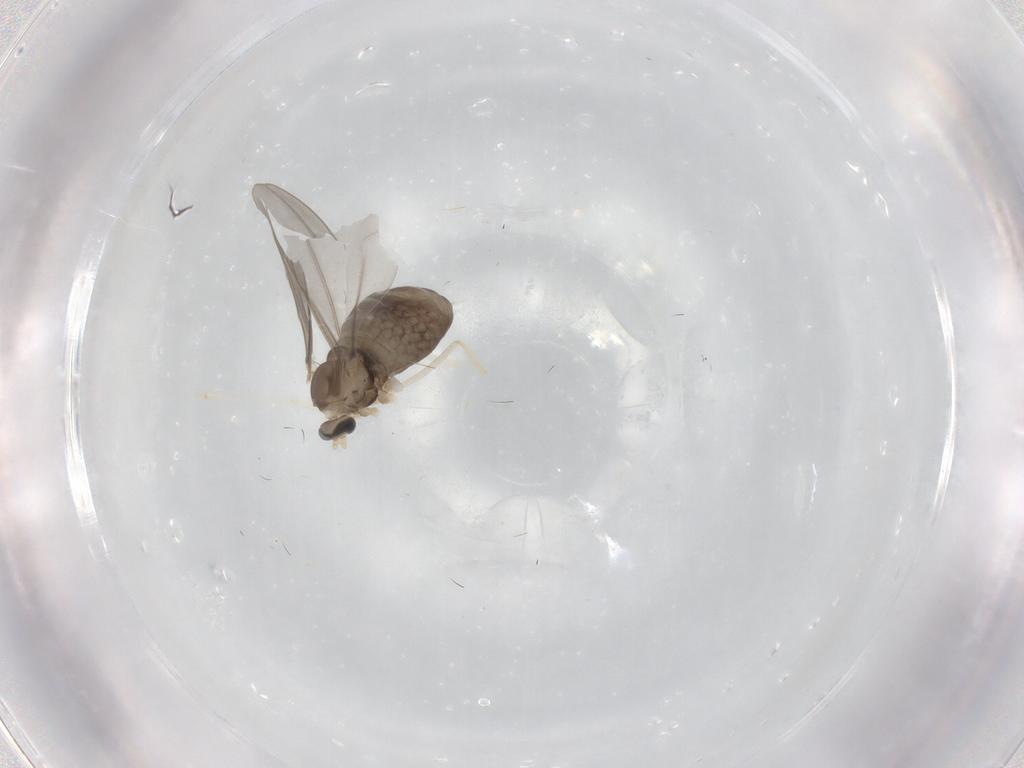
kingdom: Animalia
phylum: Arthropoda
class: Insecta
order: Diptera
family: Cecidomyiidae
